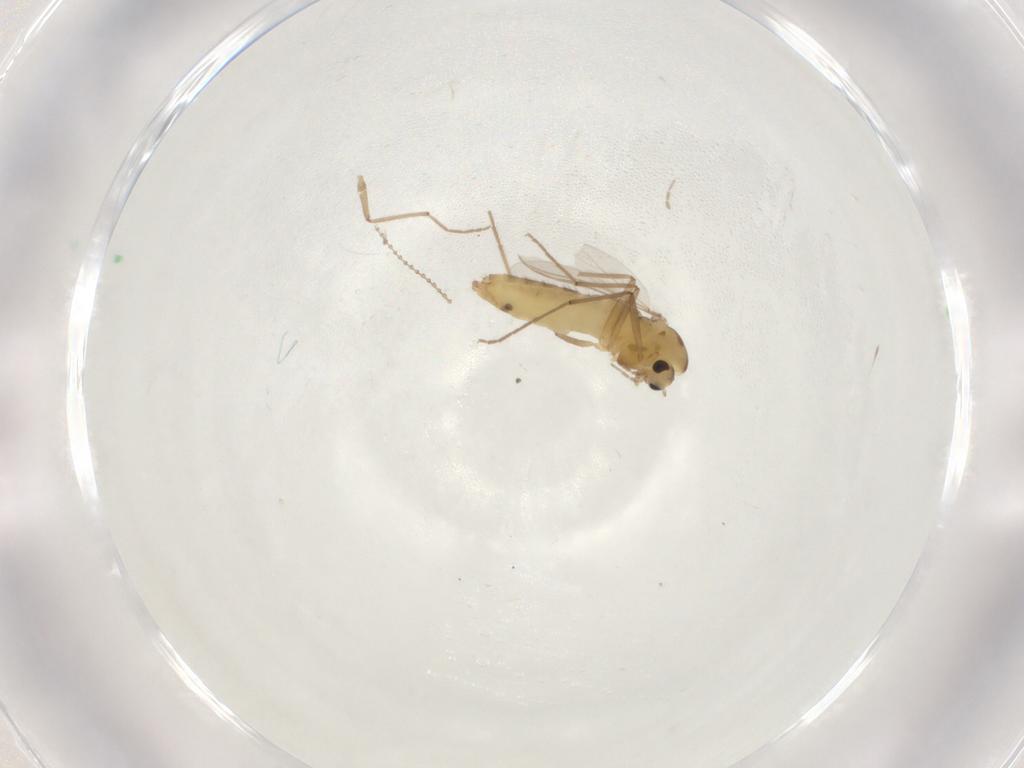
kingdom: Animalia
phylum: Arthropoda
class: Insecta
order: Diptera
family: Chironomidae
